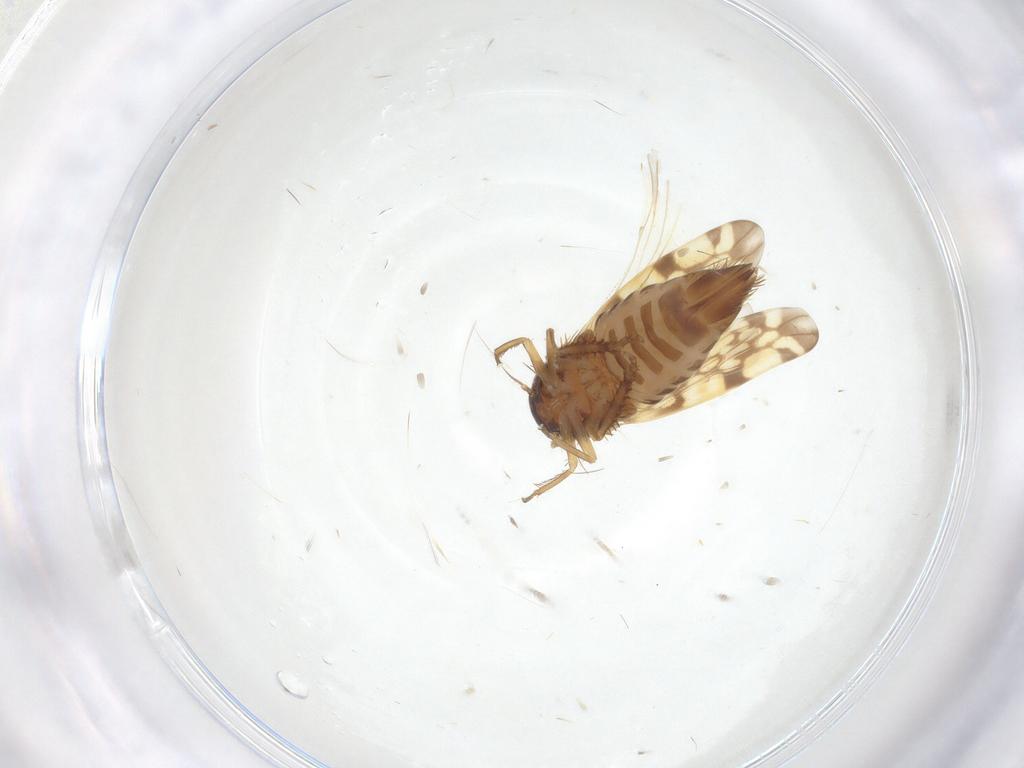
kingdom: Animalia
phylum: Arthropoda
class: Insecta
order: Hemiptera
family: Cicadellidae
